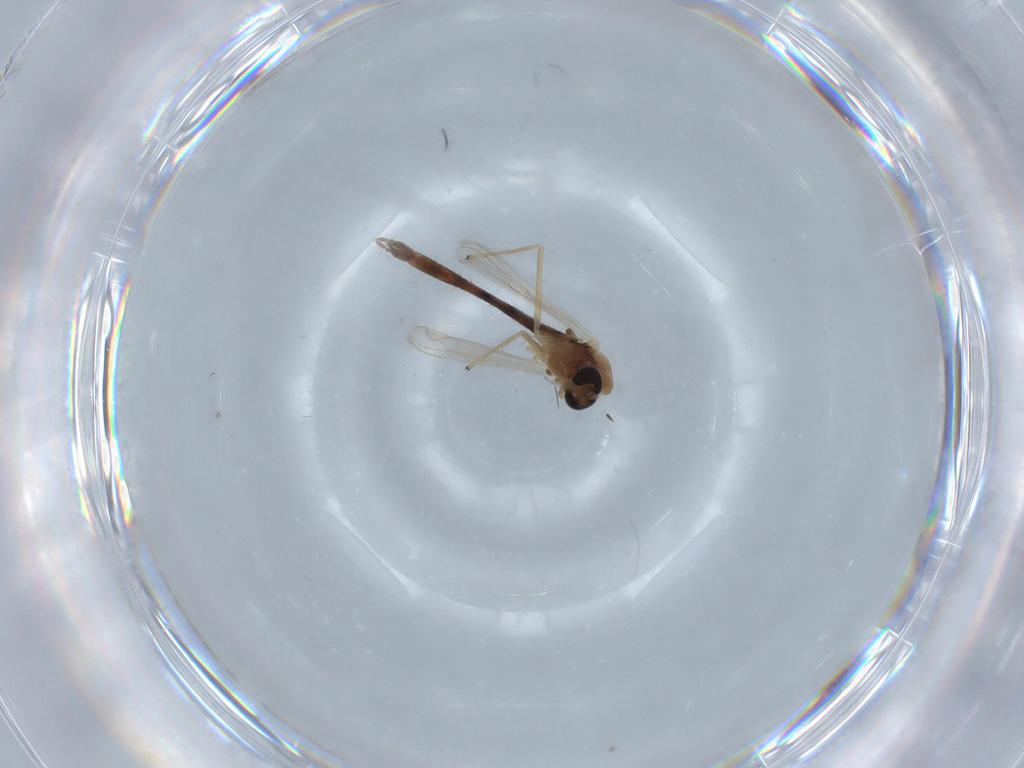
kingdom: Animalia
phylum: Arthropoda
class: Insecta
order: Diptera
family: Chironomidae
